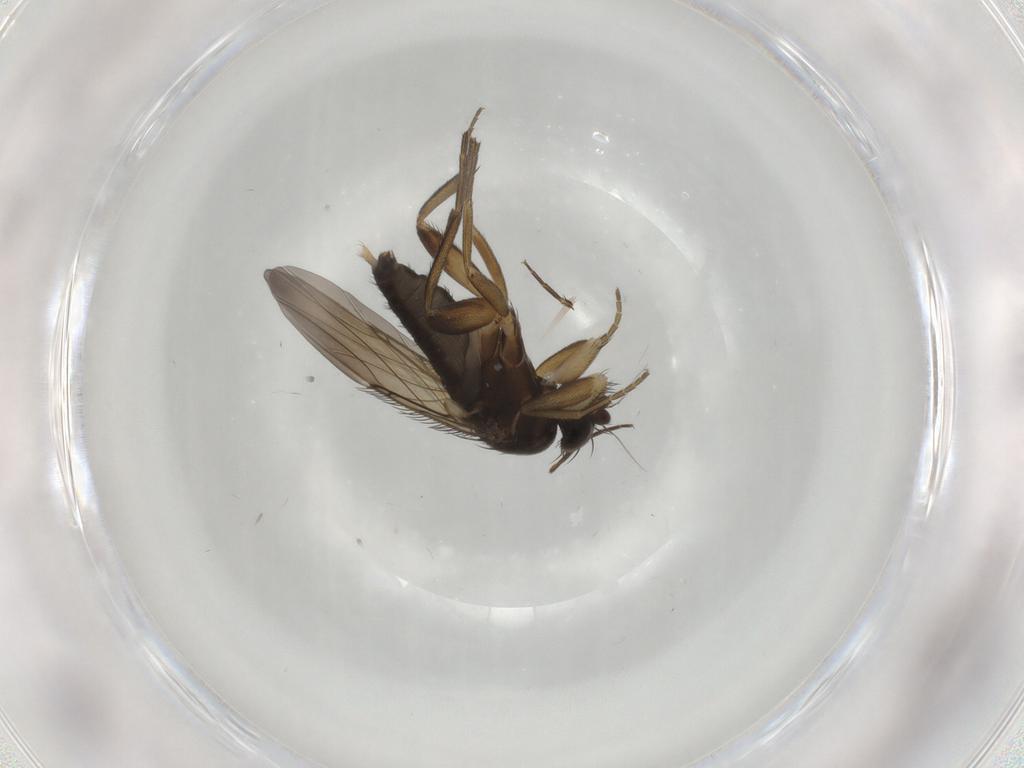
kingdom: Animalia
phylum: Arthropoda
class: Insecta
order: Diptera
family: Phoridae
